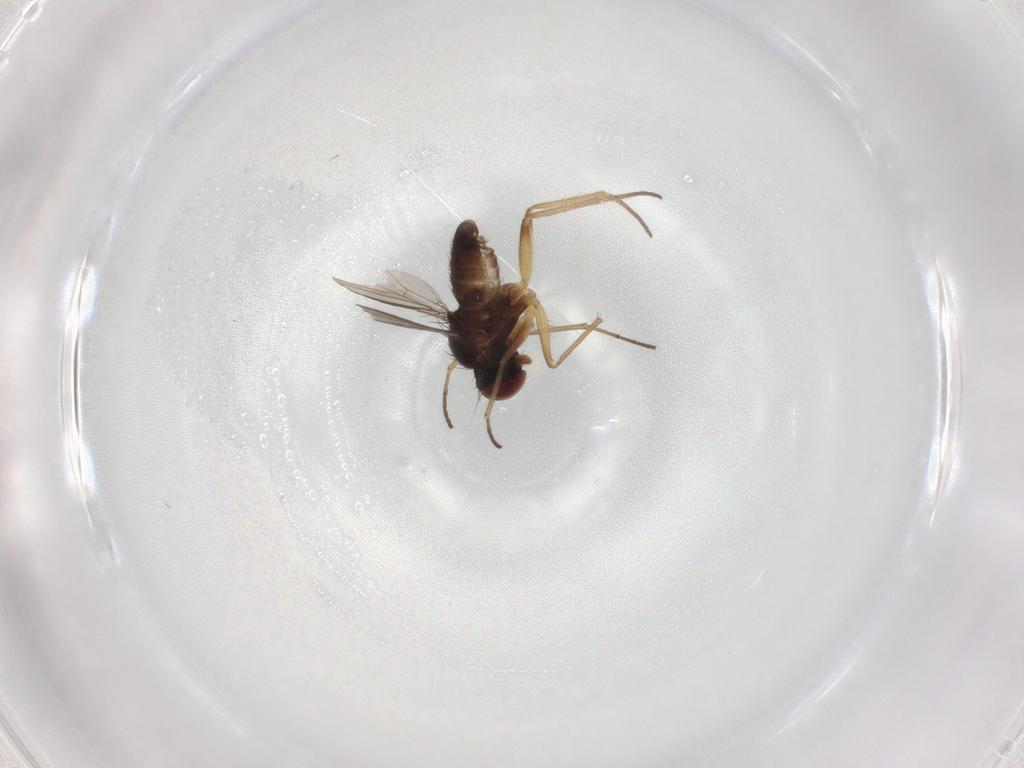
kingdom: Animalia
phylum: Arthropoda
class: Insecta
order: Diptera
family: Dolichopodidae
